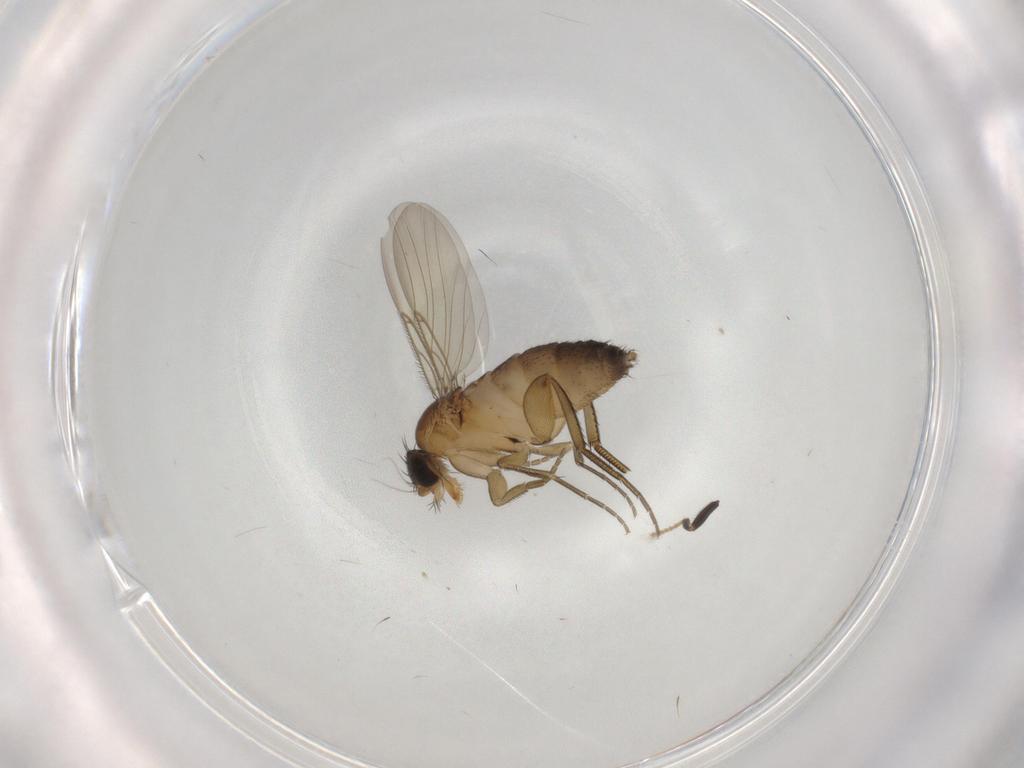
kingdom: Animalia
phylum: Arthropoda
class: Insecta
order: Diptera
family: Phoridae
